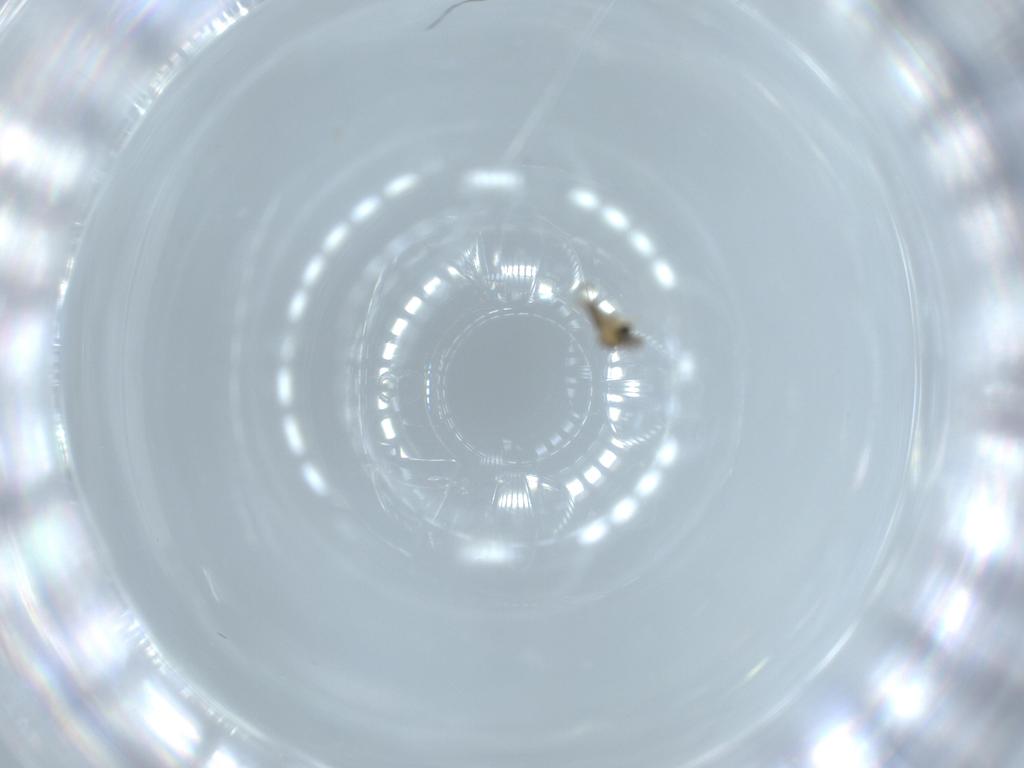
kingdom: Animalia
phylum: Arthropoda
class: Insecta
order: Diptera
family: Cecidomyiidae
